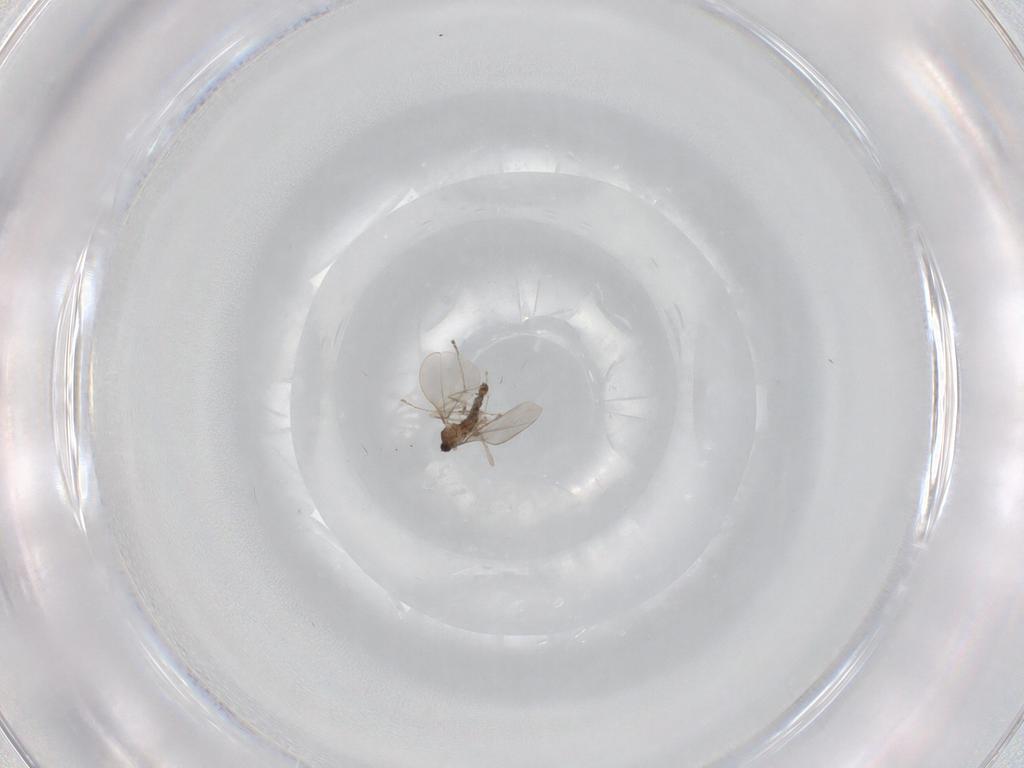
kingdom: Animalia
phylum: Arthropoda
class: Insecta
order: Diptera
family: Cecidomyiidae
